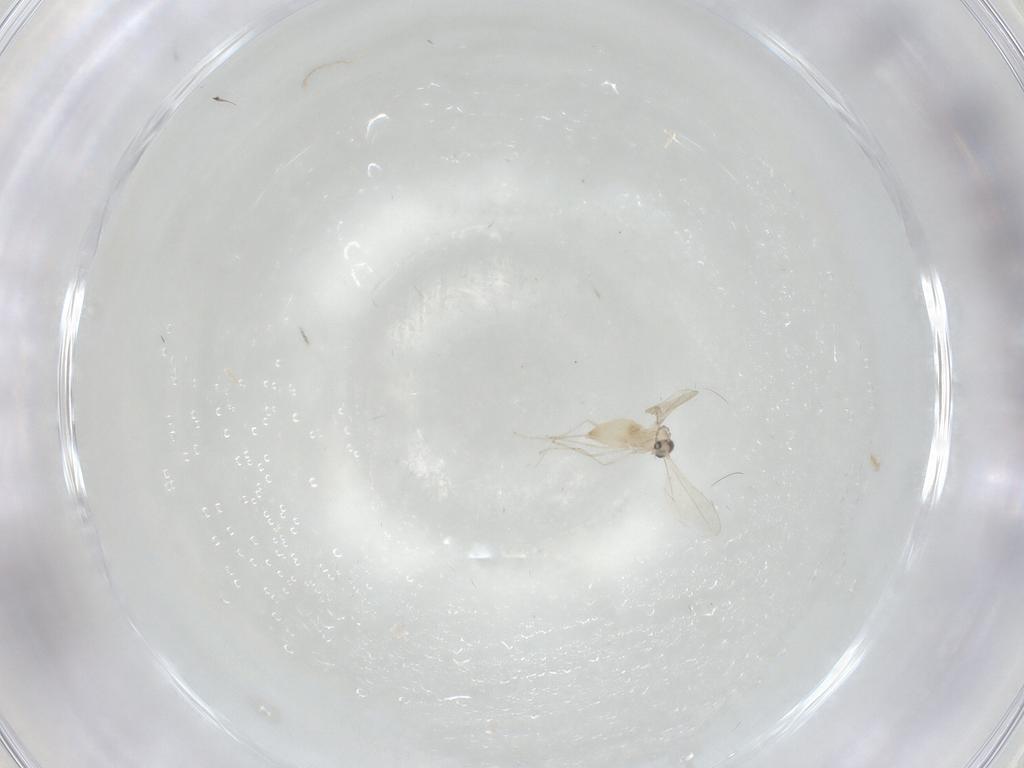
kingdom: Animalia
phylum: Arthropoda
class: Insecta
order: Diptera
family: Cecidomyiidae
